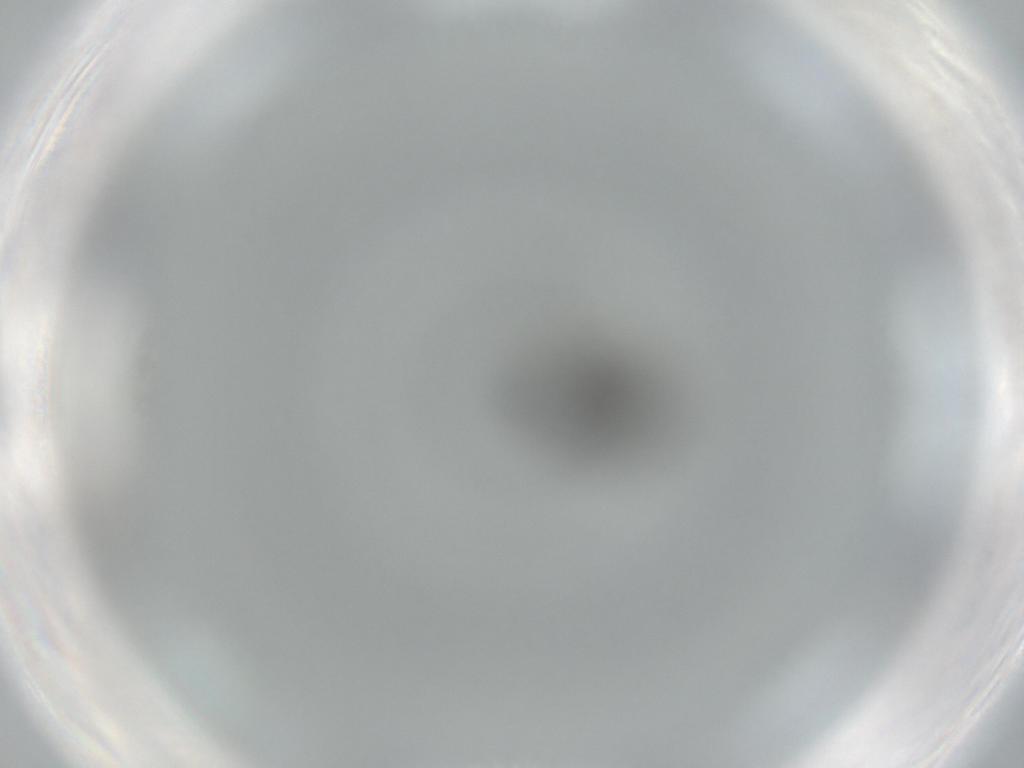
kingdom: Animalia
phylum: Arthropoda
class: Insecta
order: Diptera
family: Phoridae
